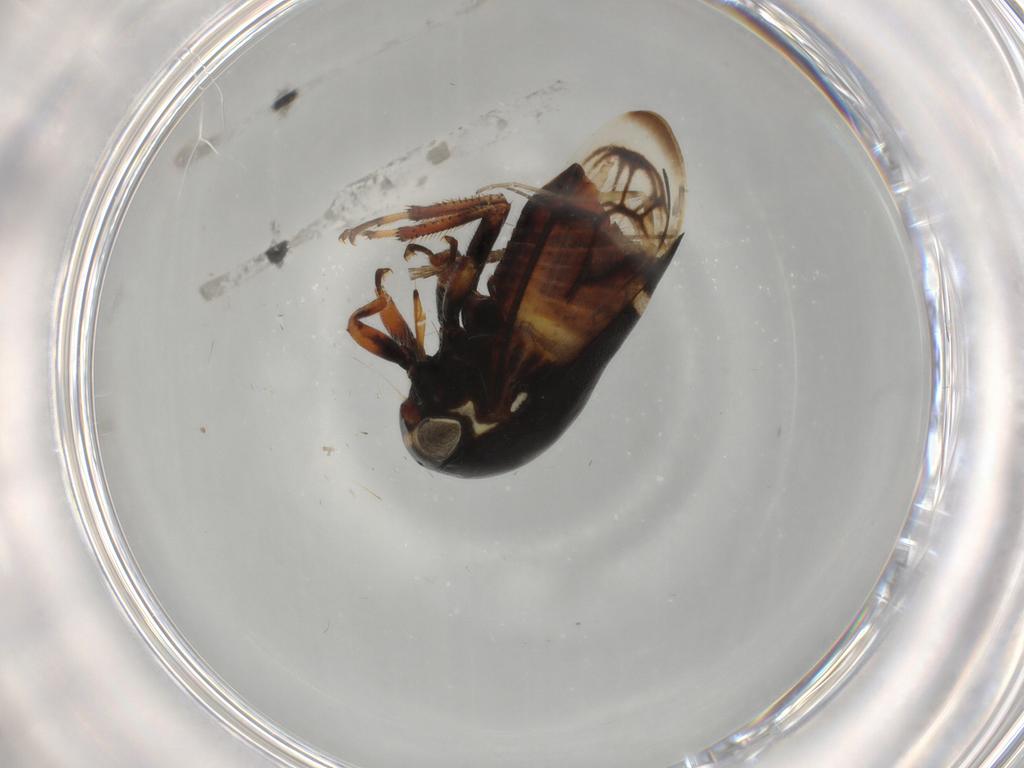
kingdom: Animalia
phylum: Arthropoda
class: Insecta
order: Hemiptera
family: Membracidae
